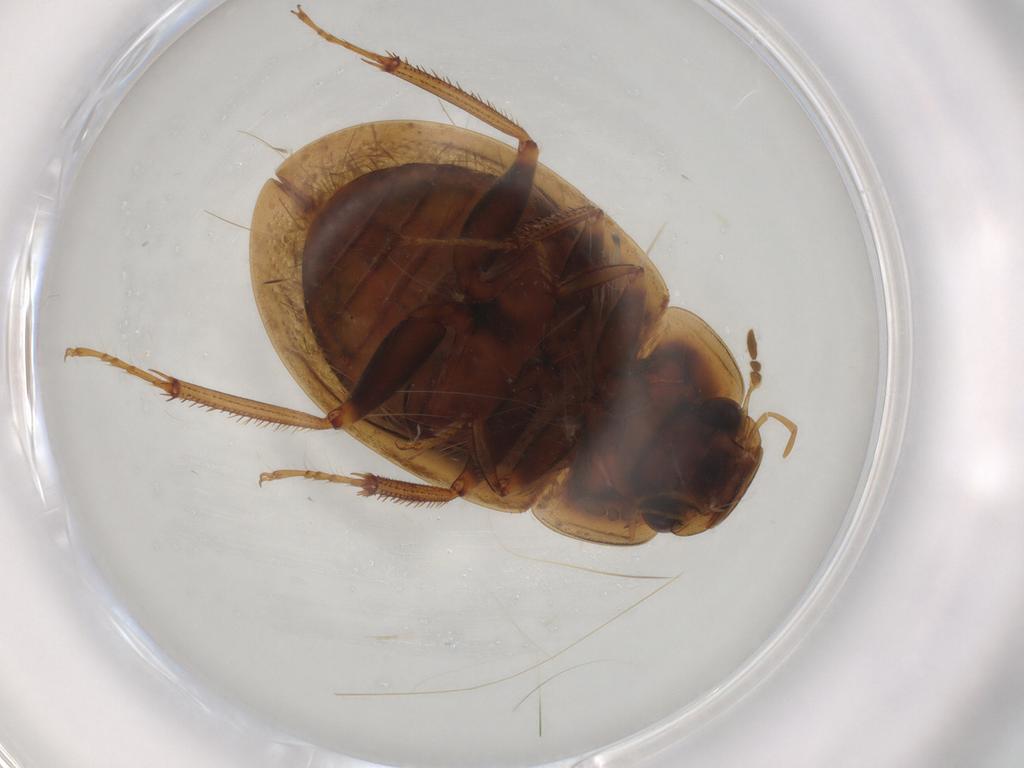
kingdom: Animalia
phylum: Arthropoda
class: Insecta
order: Coleoptera
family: Hydrophilidae
